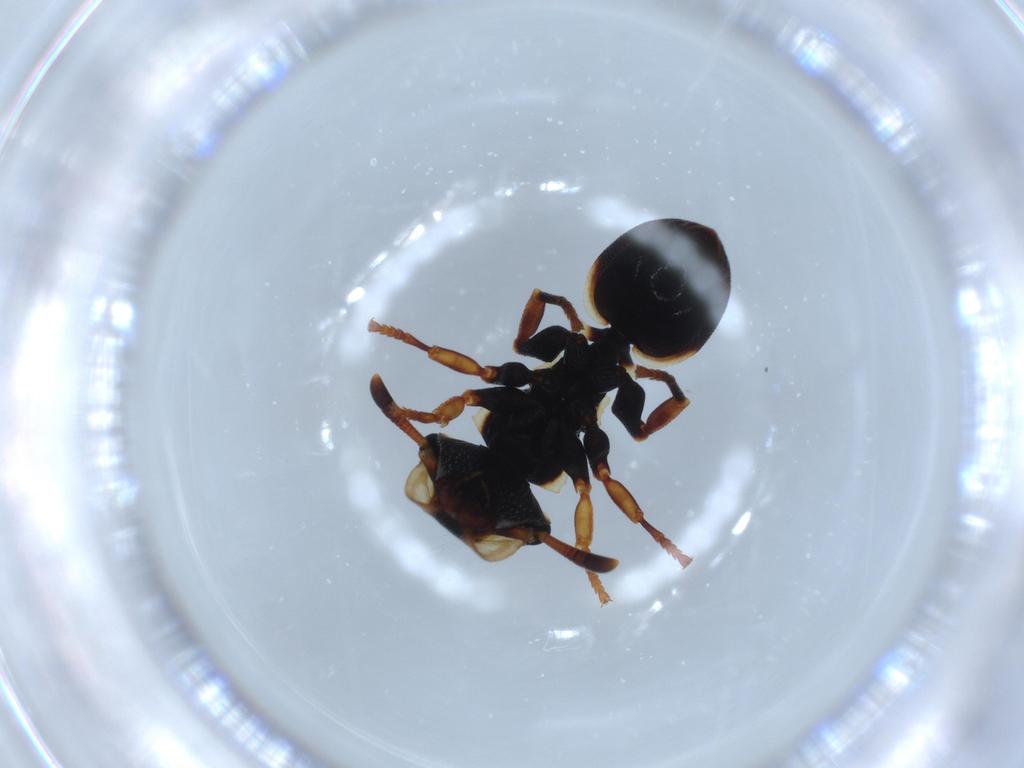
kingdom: Animalia
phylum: Arthropoda
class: Insecta
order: Hymenoptera
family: Formicidae
